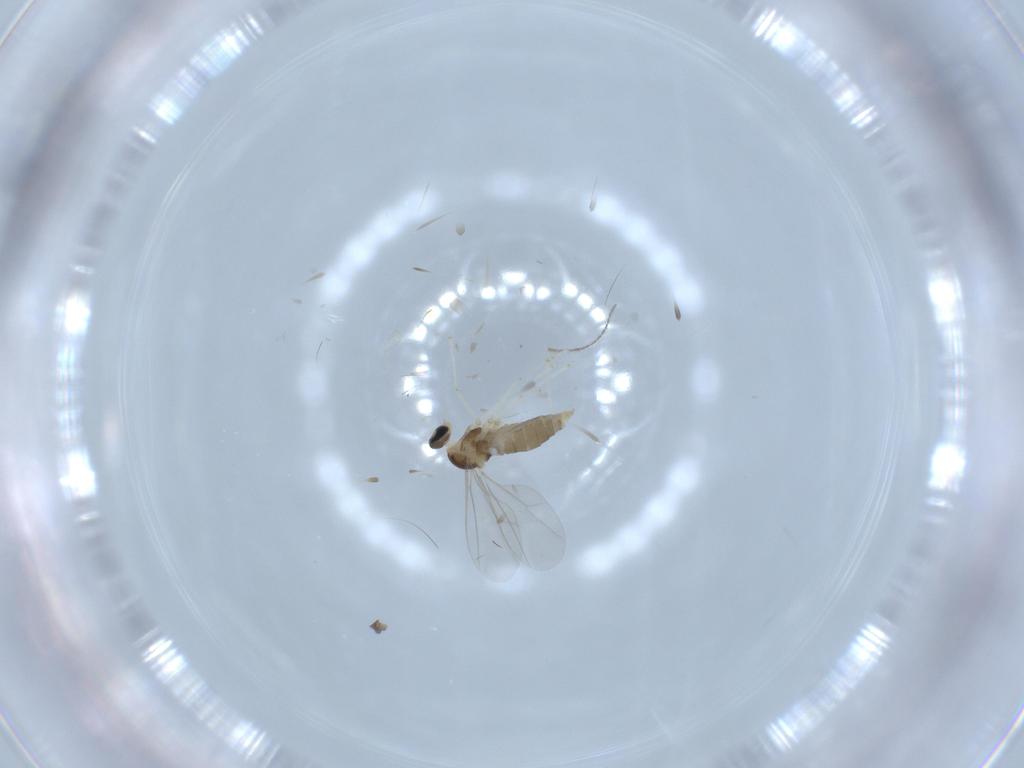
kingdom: Animalia
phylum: Arthropoda
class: Insecta
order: Diptera
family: Cecidomyiidae
